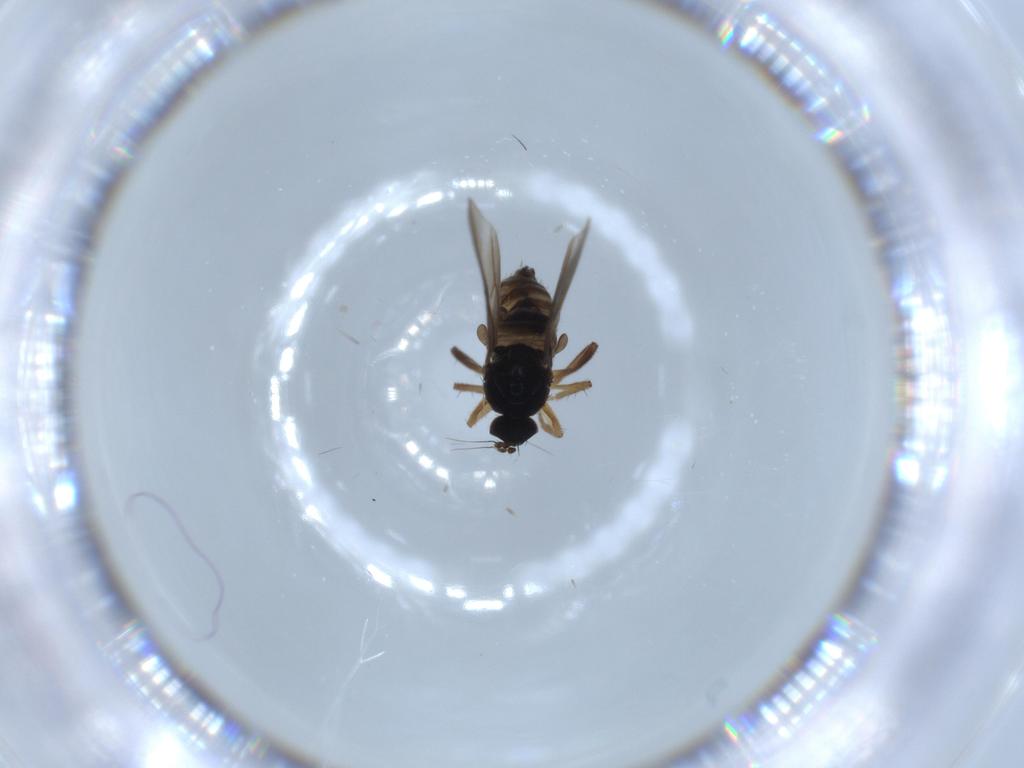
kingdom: Animalia
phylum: Arthropoda
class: Insecta
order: Diptera
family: Hybotidae
